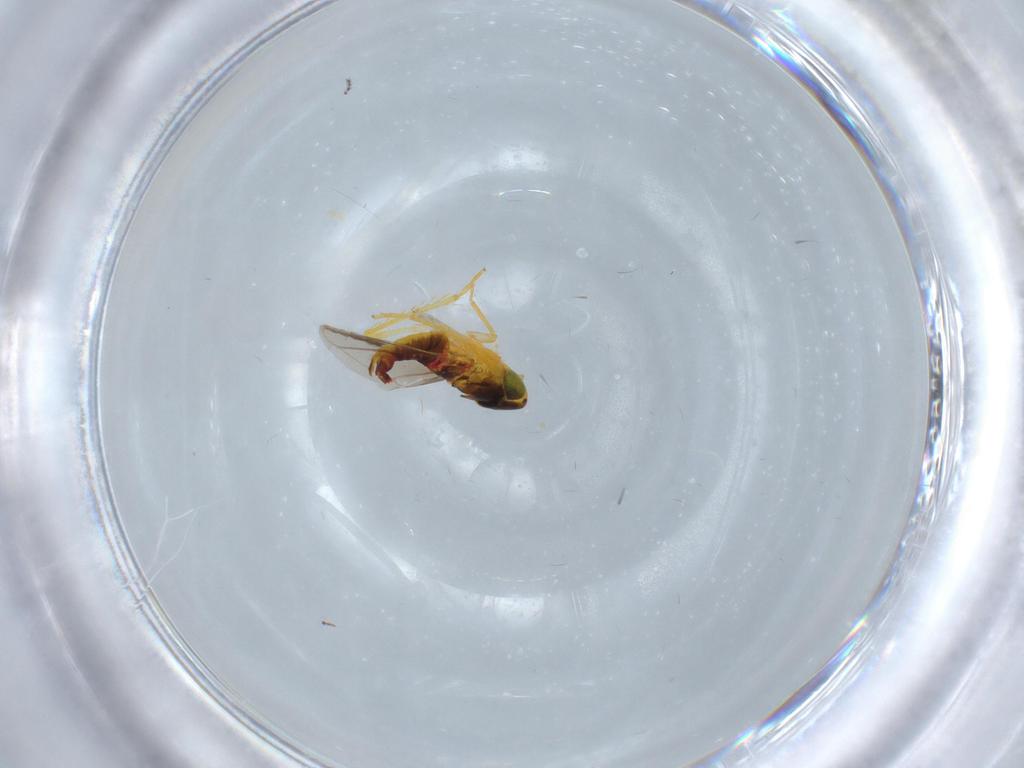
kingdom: Animalia
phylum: Arthropoda
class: Insecta
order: Hemiptera
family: Cicadellidae
